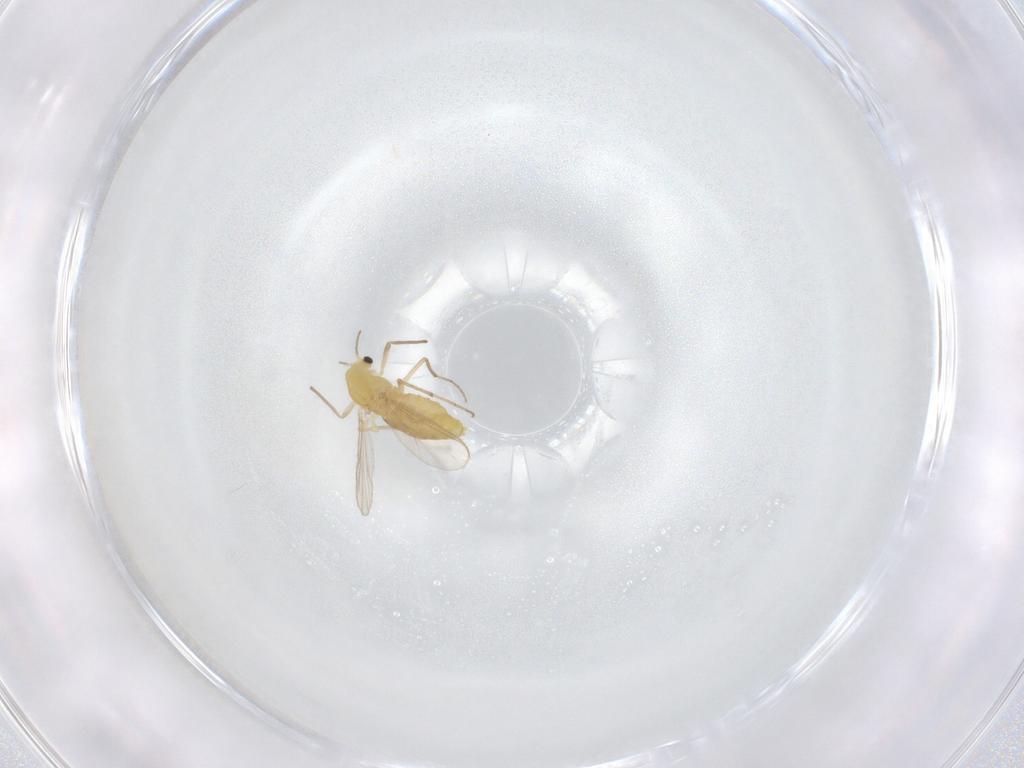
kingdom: Animalia
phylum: Arthropoda
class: Insecta
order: Diptera
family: Chironomidae
